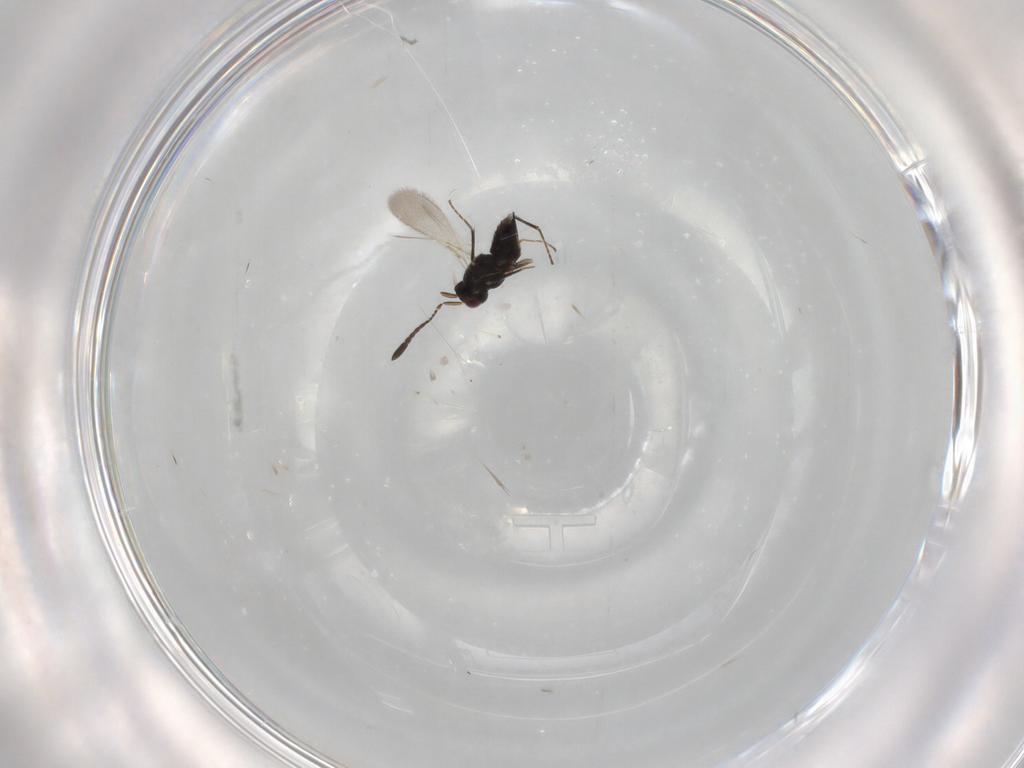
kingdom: Animalia
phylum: Arthropoda
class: Insecta
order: Hymenoptera
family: Mymaridae
